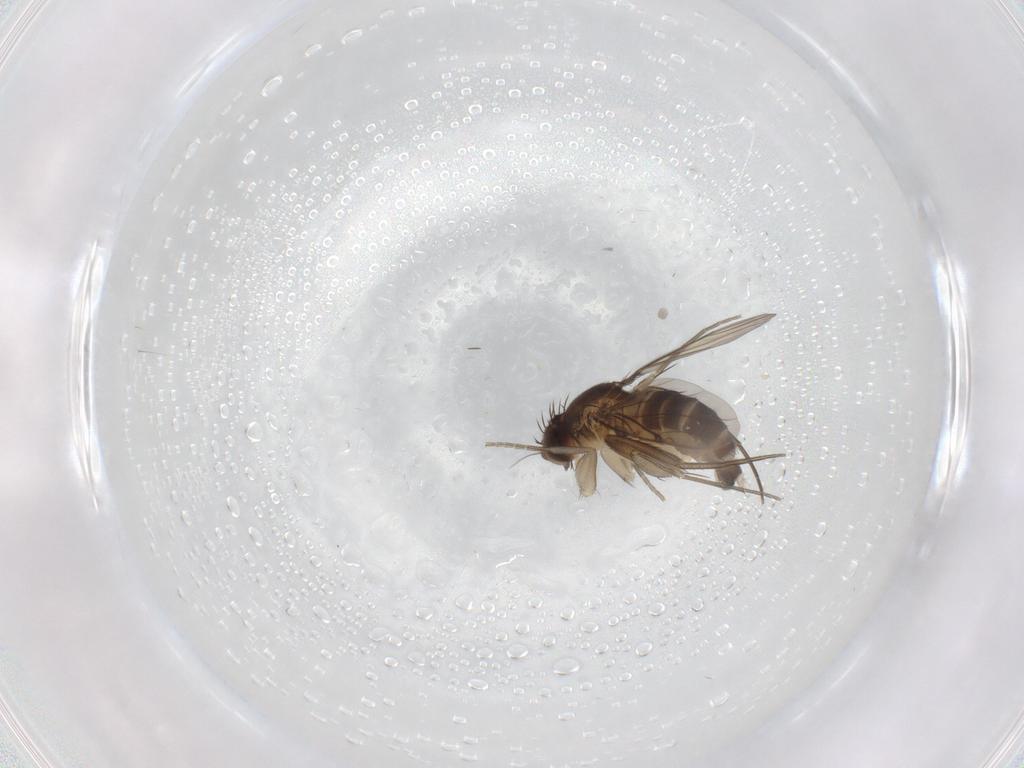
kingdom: Animalia
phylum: Arthropoda
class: Insecta
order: Diptera
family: Phoridae
